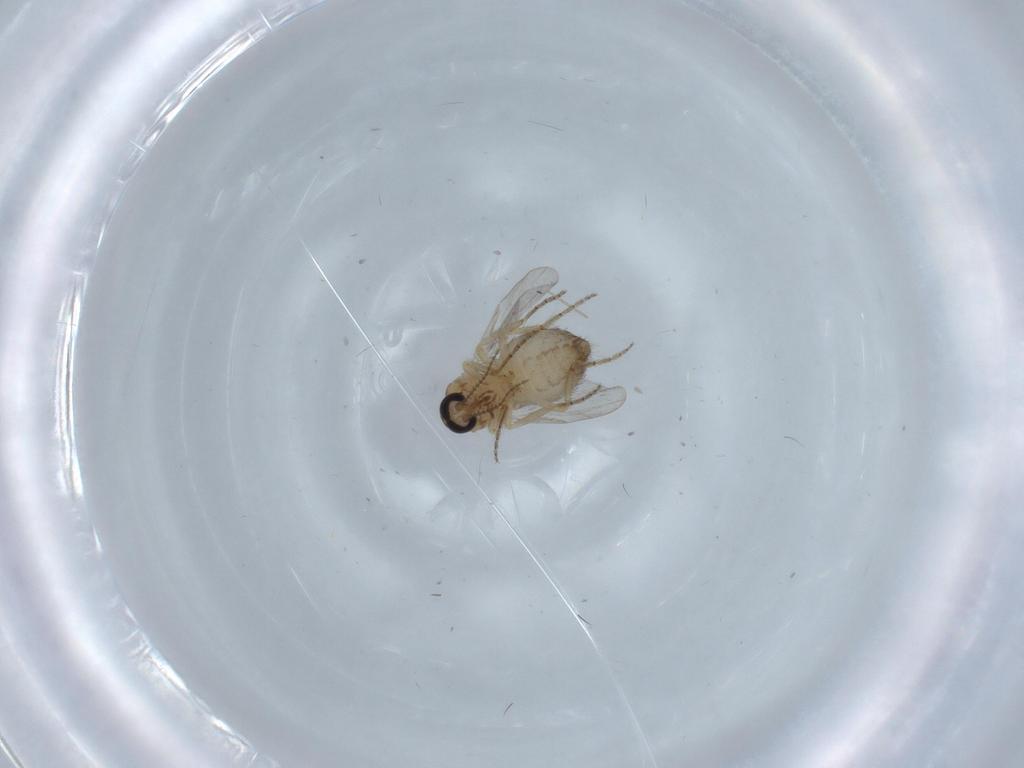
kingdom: Animalia
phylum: Arthropoda
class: Insecta
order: Diptera
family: Ceratopogonidae
